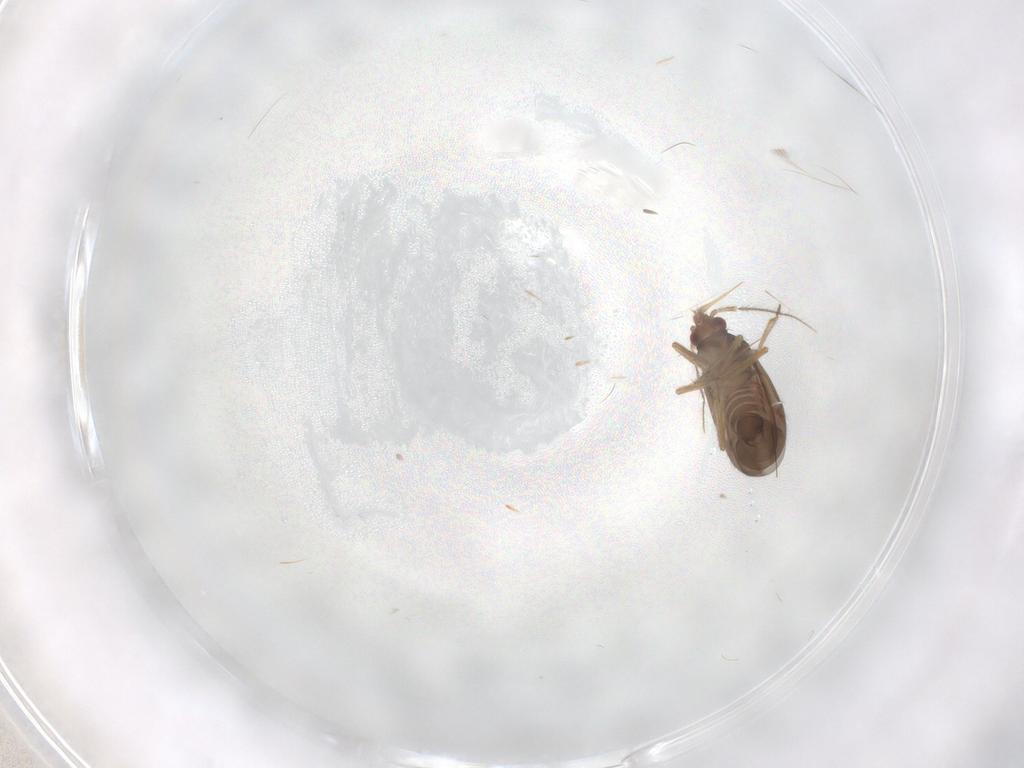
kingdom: Animalia
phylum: Arthropoda
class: Insecta
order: Hemiptera
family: Ceratocombidae
